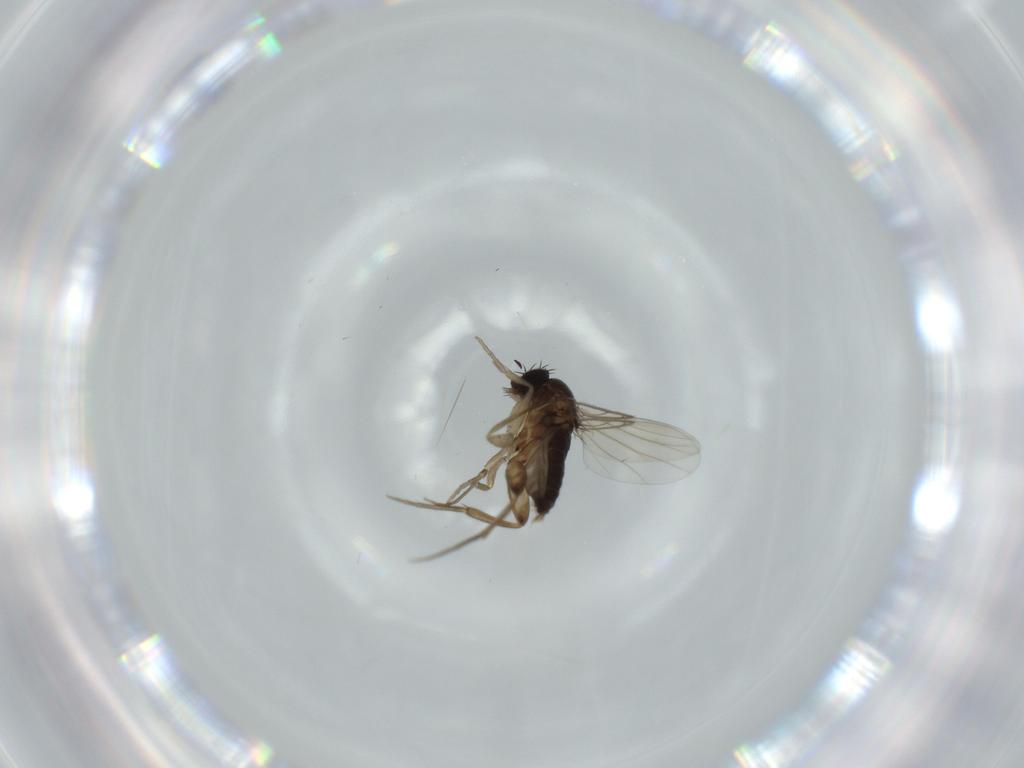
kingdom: Animalia
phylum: Arthropoda
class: Insecta
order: Diptera
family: Phoridae
